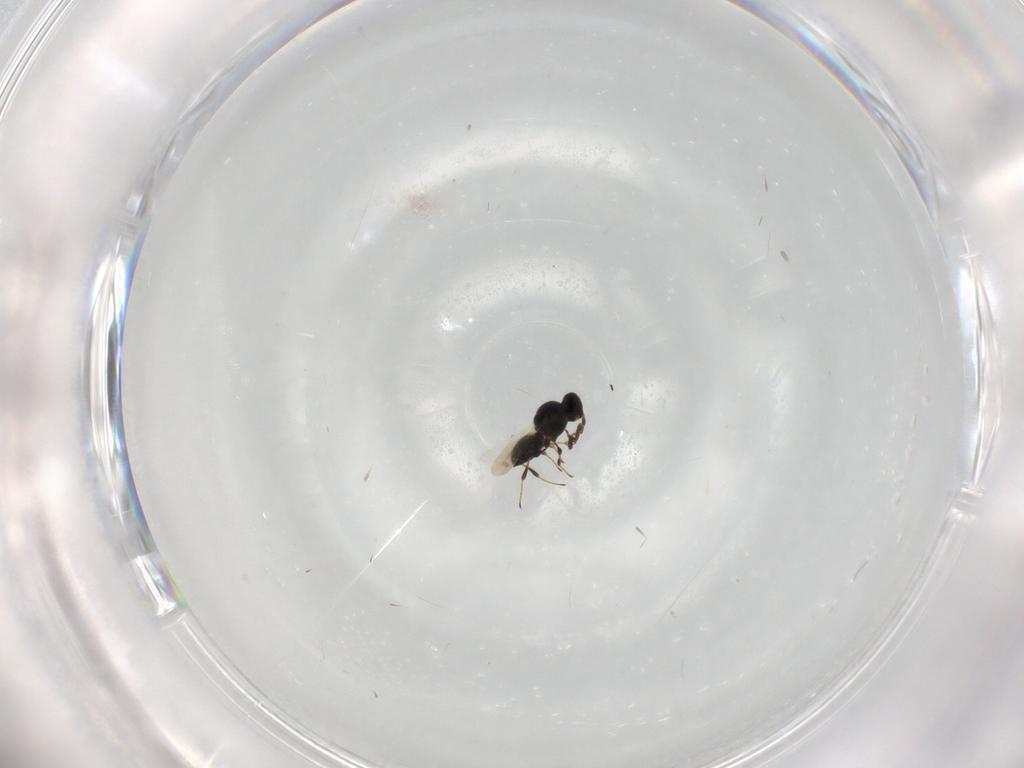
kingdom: Animalia
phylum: Arthropoda
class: Insecta
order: Hymenoptera
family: Platygastridae
